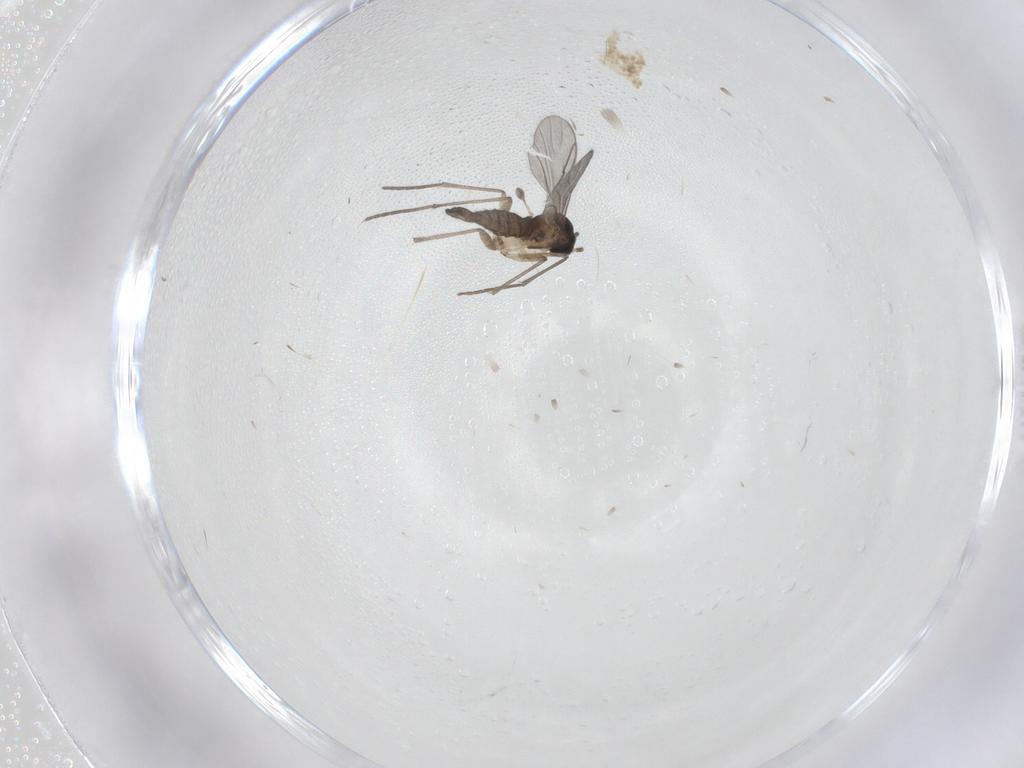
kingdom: Animalia
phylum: Arthropoda
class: Insecta
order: Diptera
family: Sciaridae
